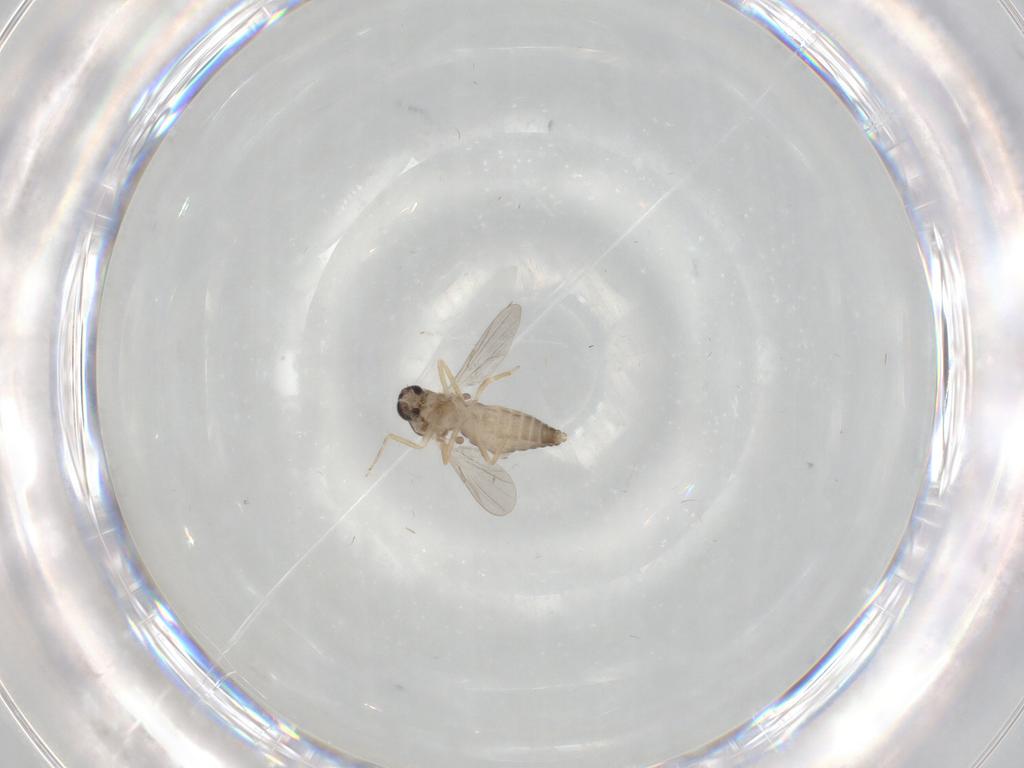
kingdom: Animalia
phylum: Arthropoda
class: Insecta
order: Diptera
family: Ceratopogonidae
